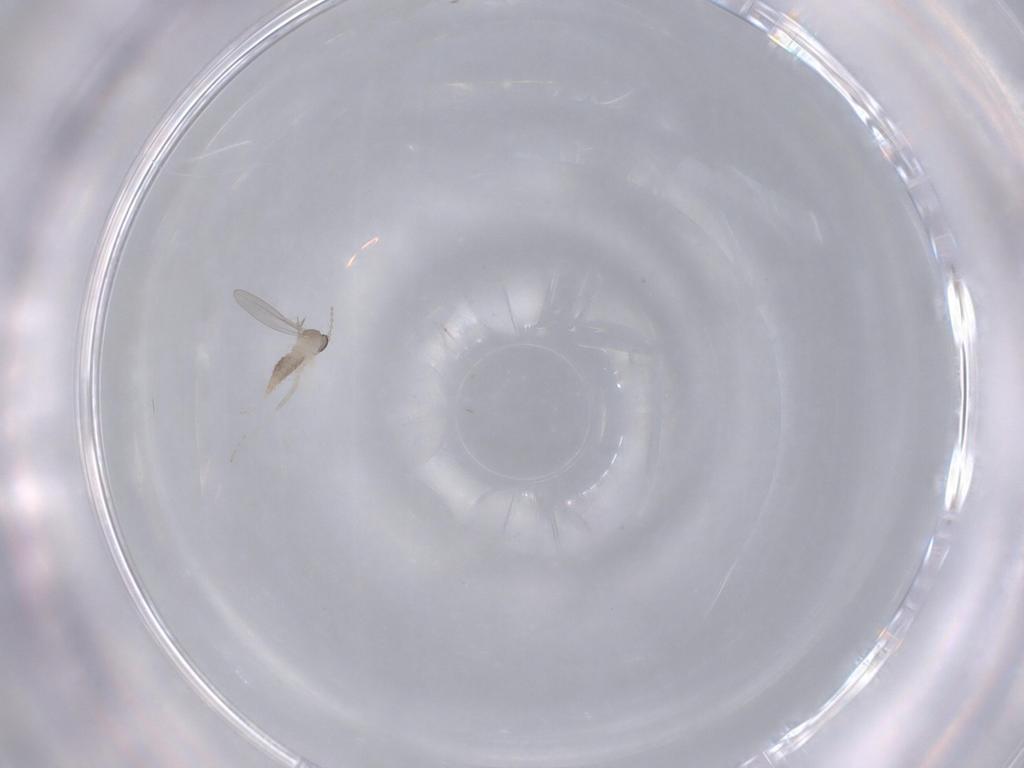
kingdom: Animalia
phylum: Arthropoda
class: Insecta
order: Diptera
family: Cecidomyiidae
